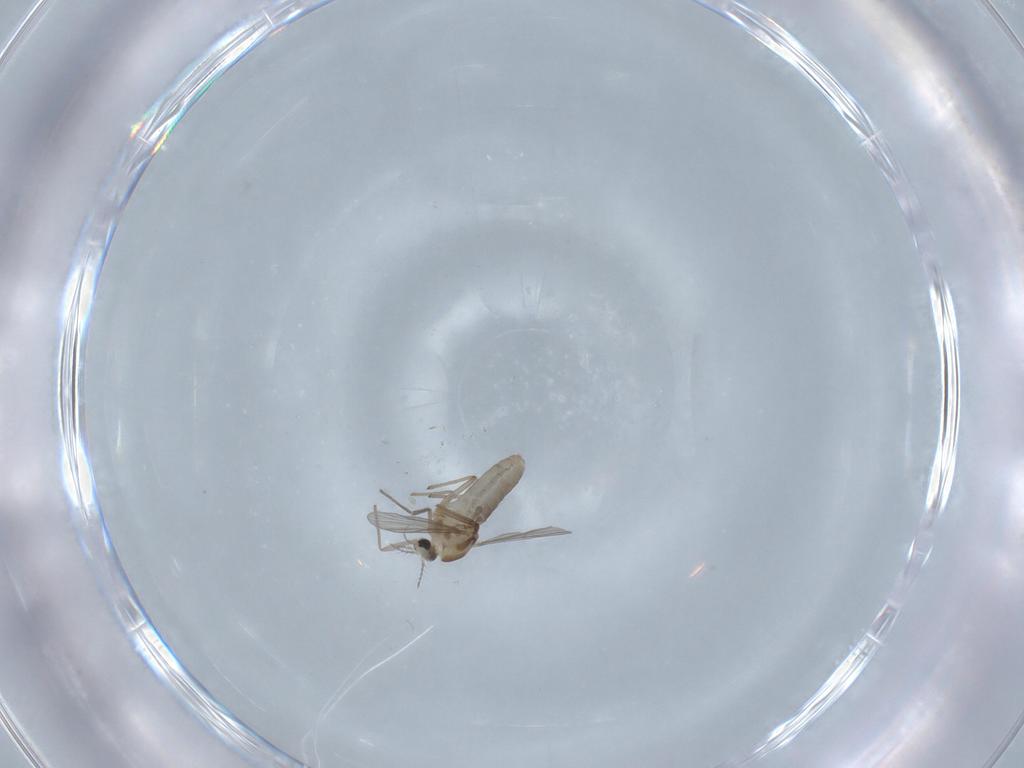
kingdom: Animalia
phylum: Arthropoda
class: Insecta
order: Diptera
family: Chironomidae
